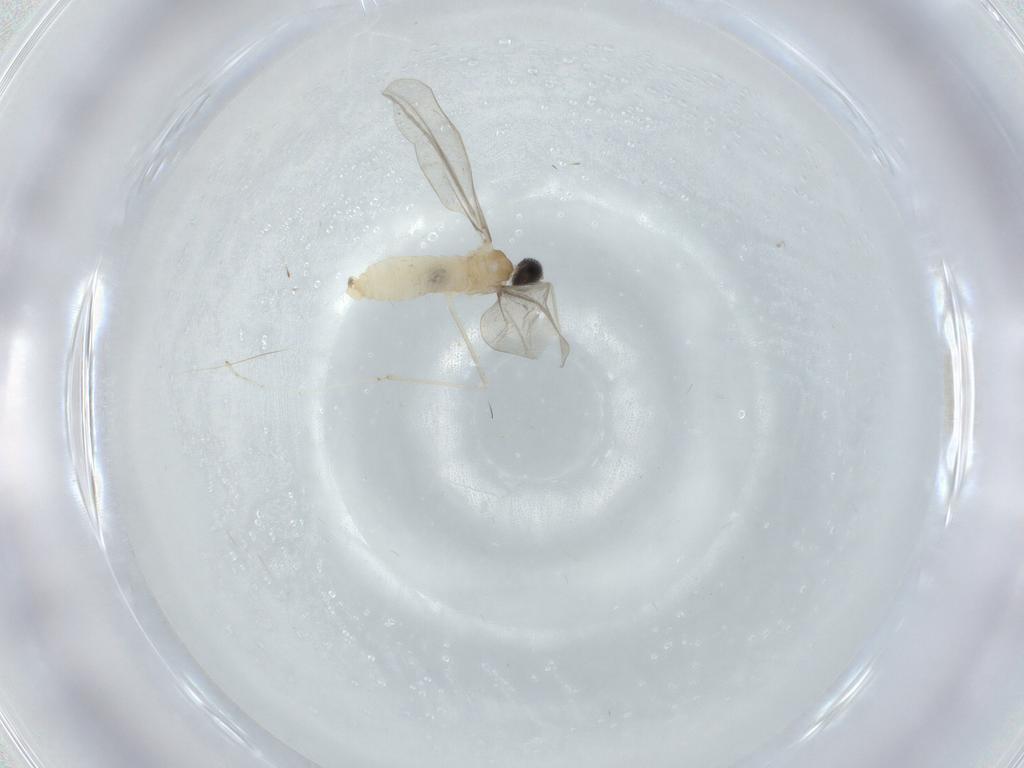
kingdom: Animalia
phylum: Arthropoda
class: Insecta
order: Diptera
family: Cecidomyiidae
